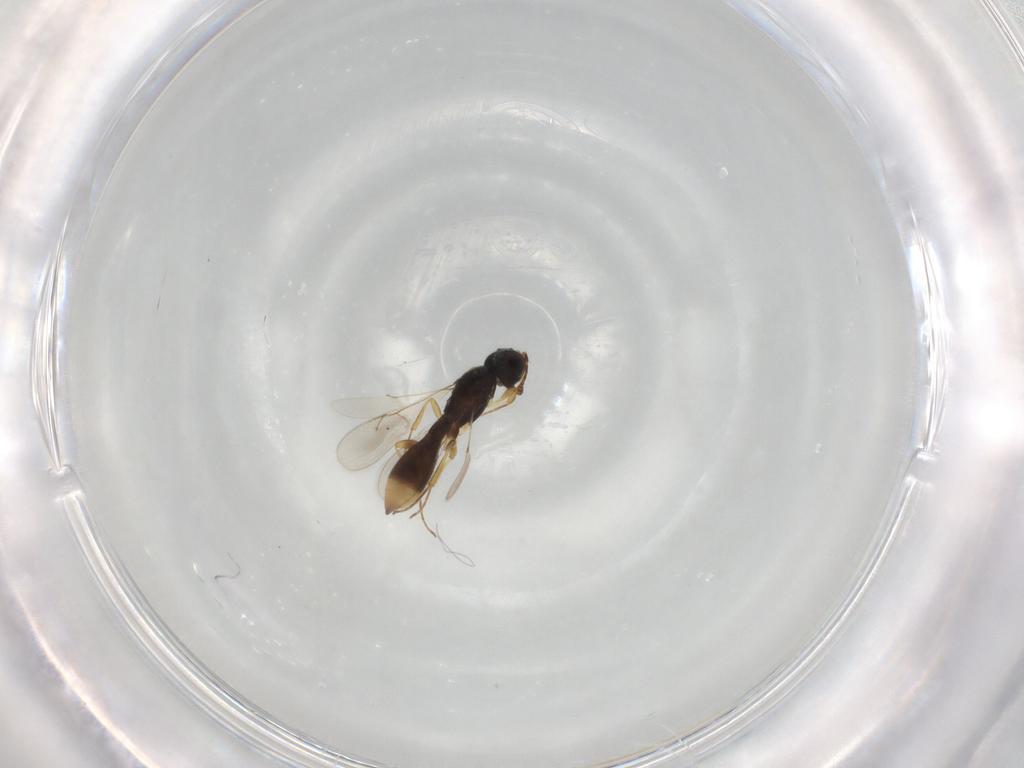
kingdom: Animalia
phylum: Arthropoda
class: Insecta
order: Hymenoptera
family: Scelionidae
